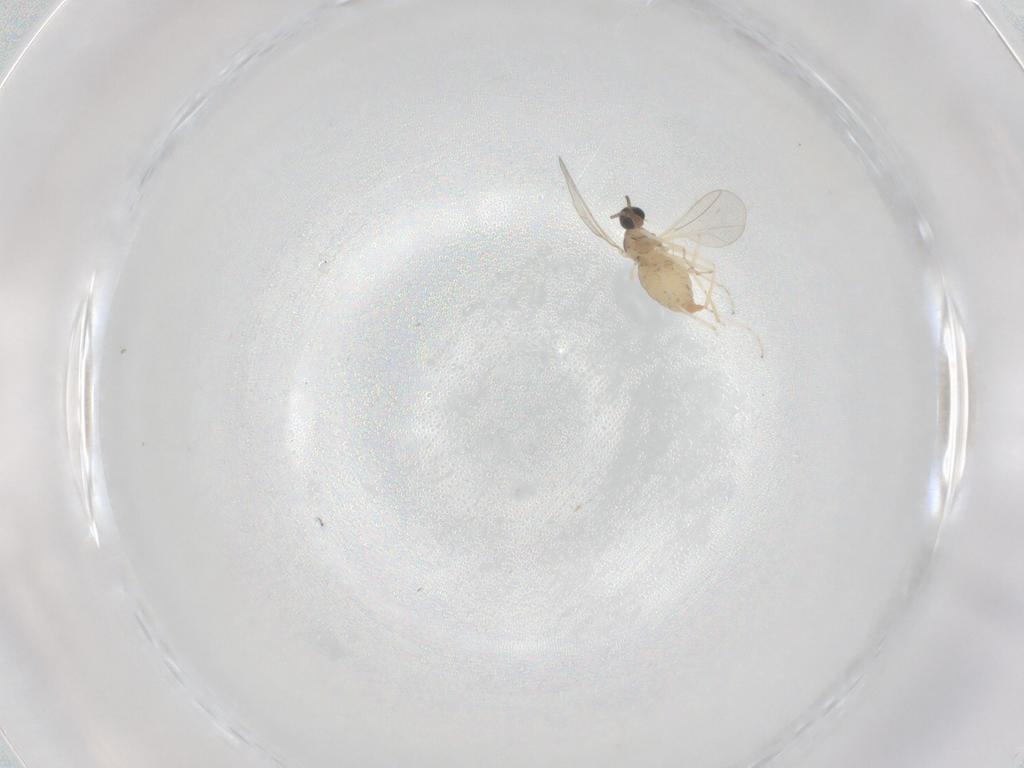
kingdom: Animalia
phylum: Arthropoda
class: Insecta
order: Diptera
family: Cecidomyiidae
